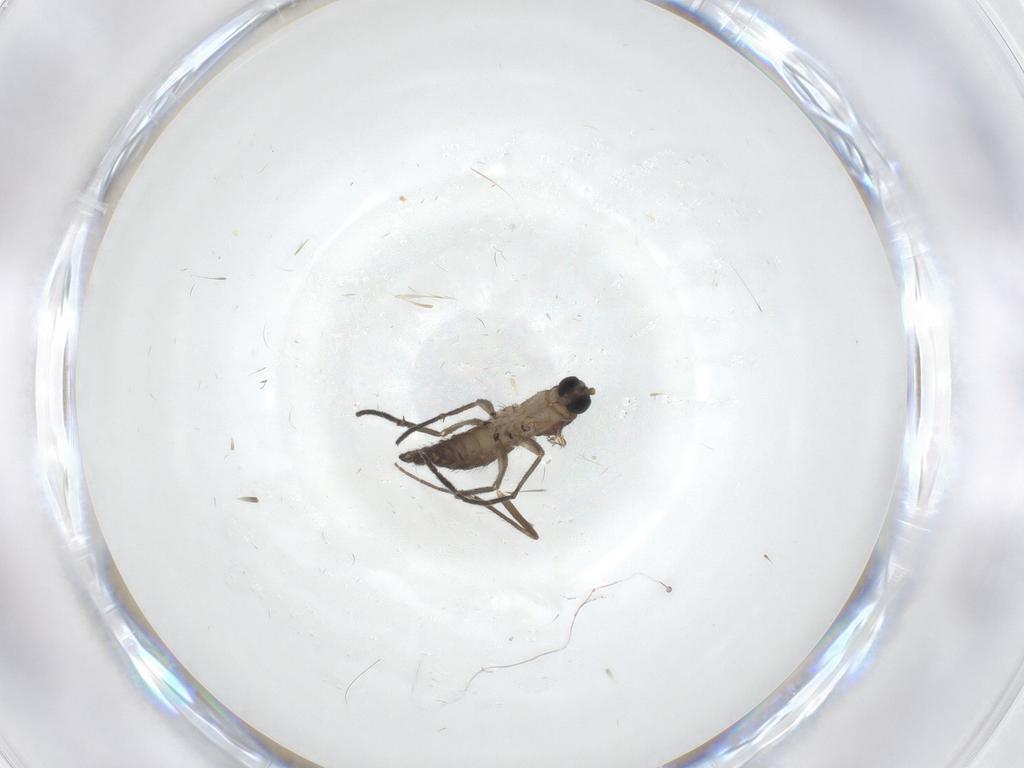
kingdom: Animalia
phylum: Arthropoda
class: Insecta
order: Diptera
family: Sciaridae
